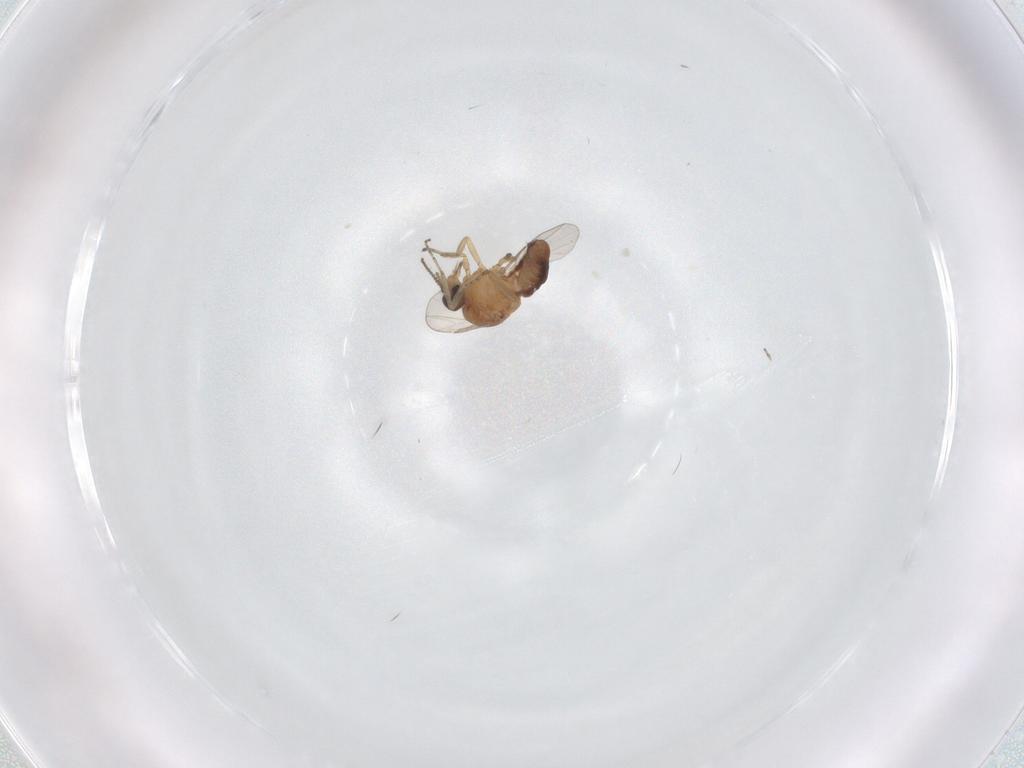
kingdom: Animalia
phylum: Arthropoda
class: Insecta
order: Diptera
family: Ceratopogonidae
